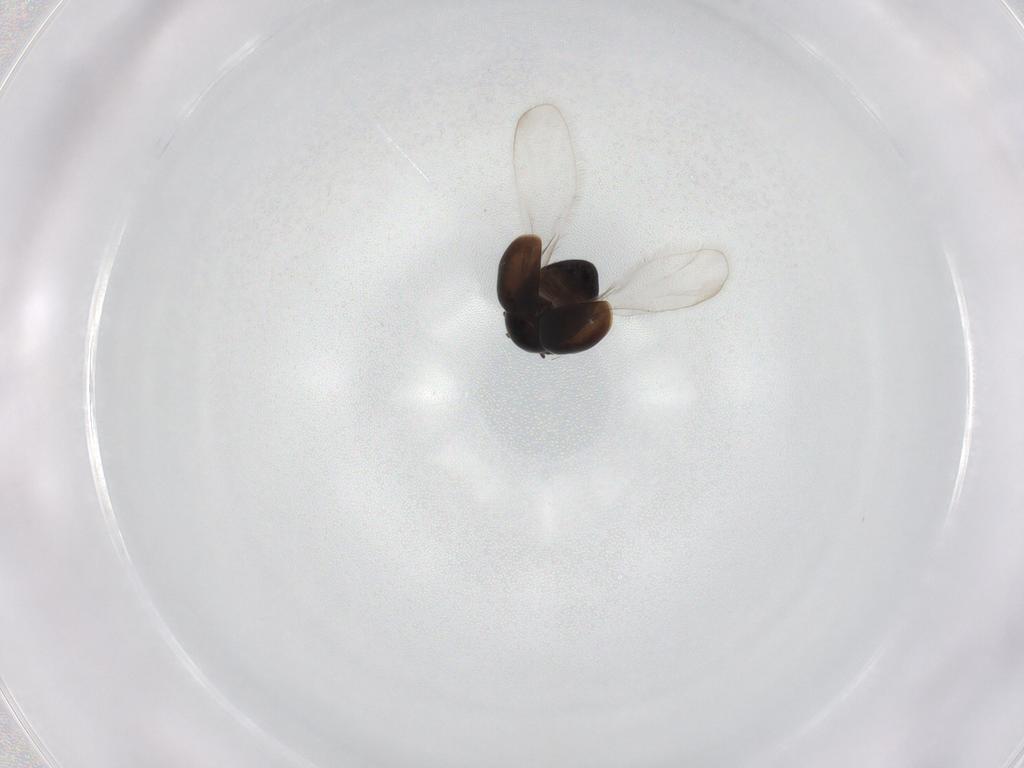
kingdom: Animalia
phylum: Arthropoda
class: Insecta
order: Coleoptera
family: Corylophidae
